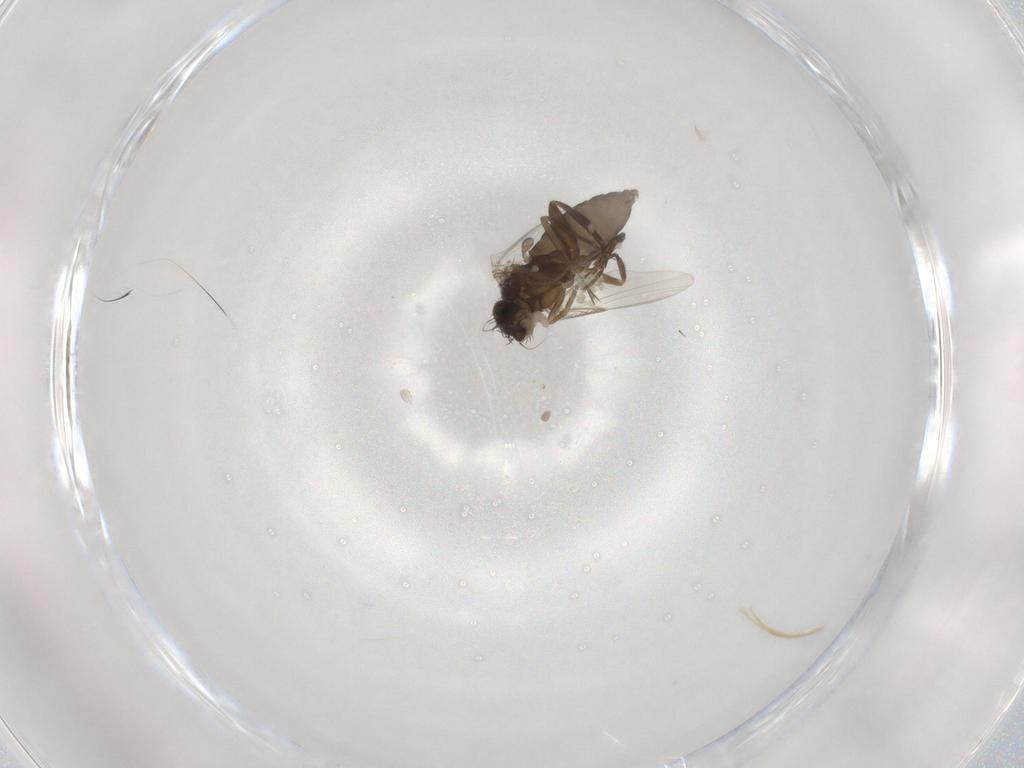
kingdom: Animalia
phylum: Arthropoda
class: Insecta
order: Diptera
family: Phoridae
